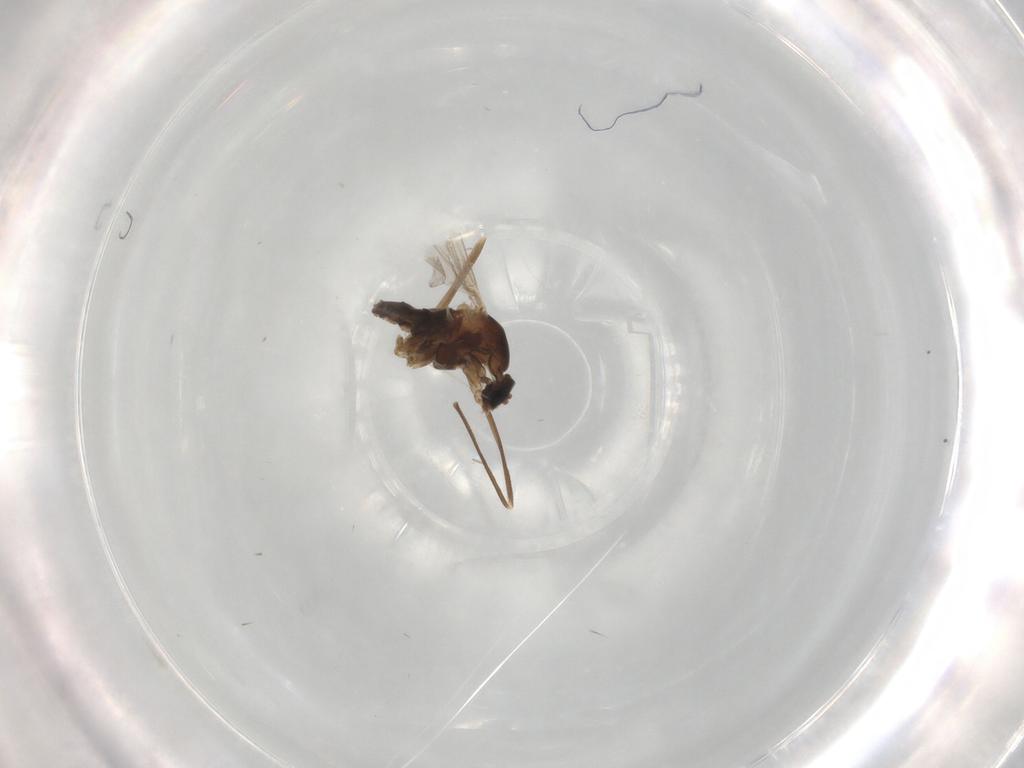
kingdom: Animalia
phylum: Arthropoda
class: Insecta
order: Diptera
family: Cecidomyiidae
